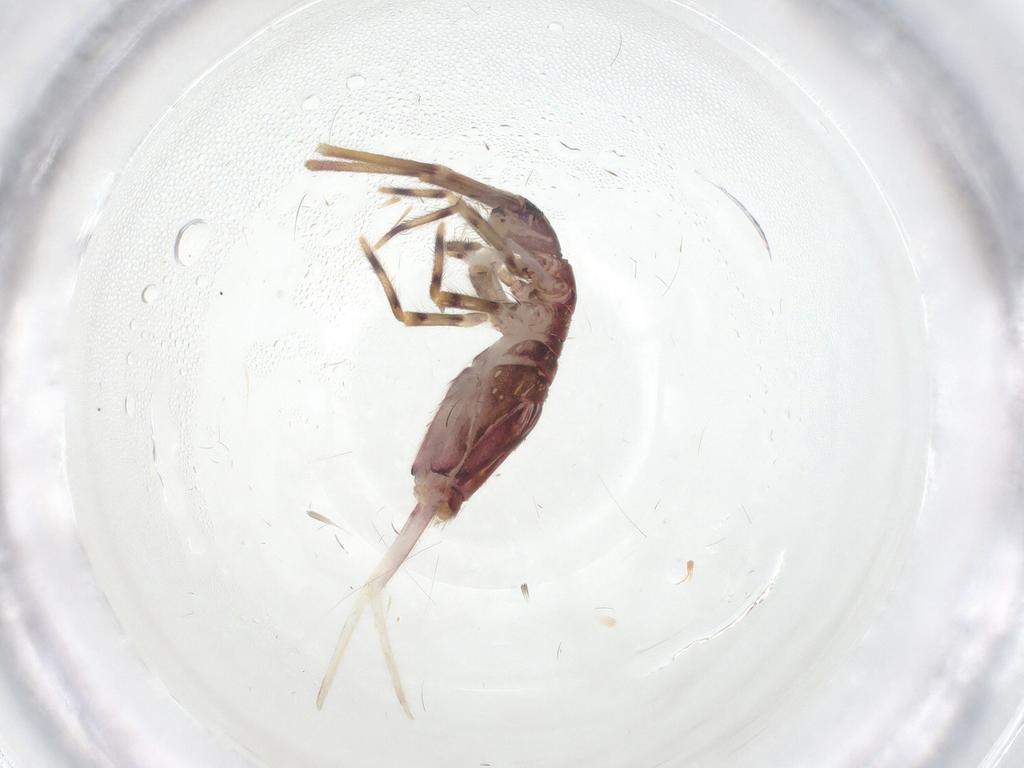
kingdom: Animalia
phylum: Arthropoda
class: Collembola
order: Entomobryomorpha
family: Entomobryidae
